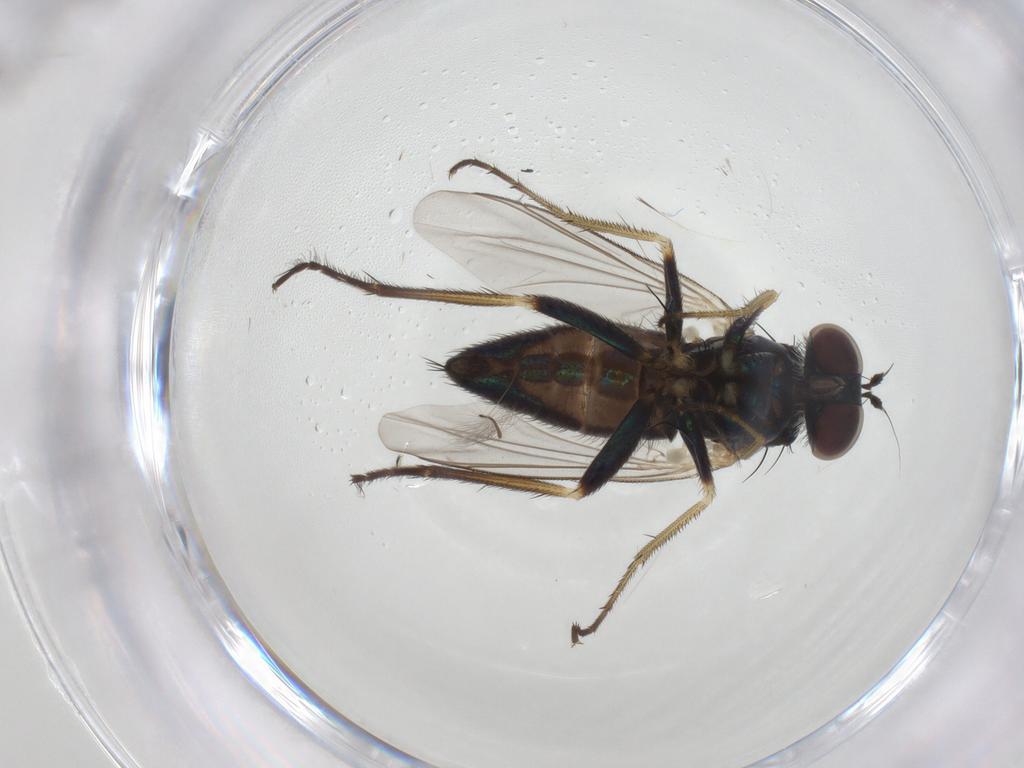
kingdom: Animalia
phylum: Arthropoda
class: Insecta
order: Diptera
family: Dolichopodidae
